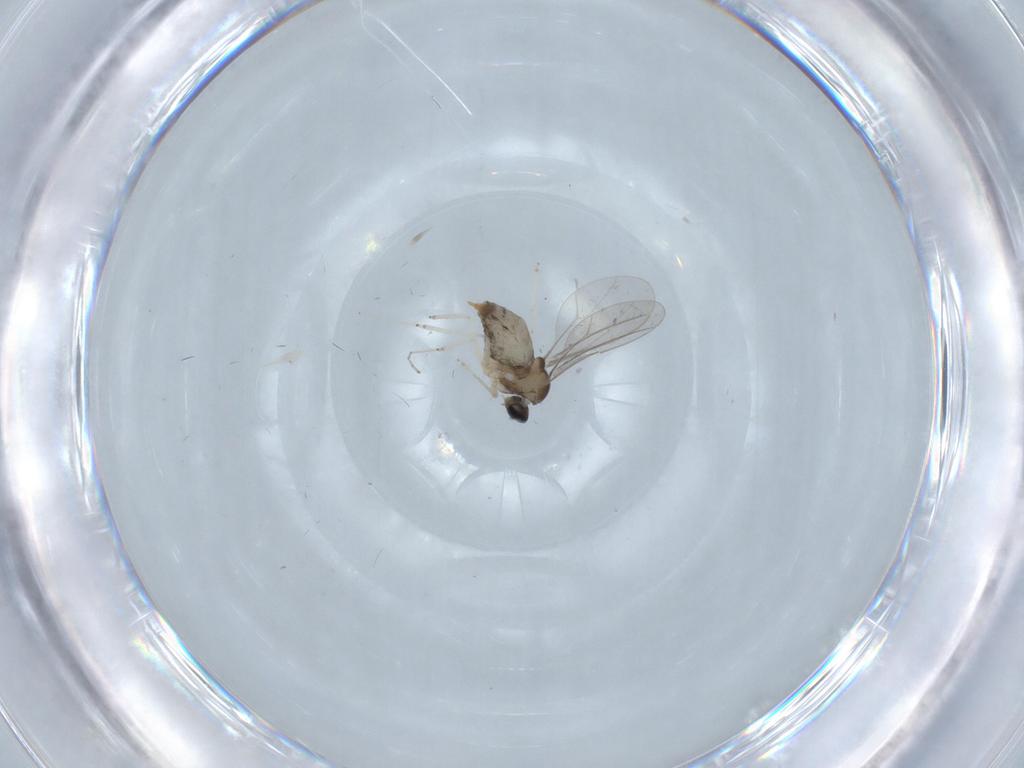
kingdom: Animalia
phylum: Arthropoda
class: Insecta
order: Diptera
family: Cecidomyiidae
